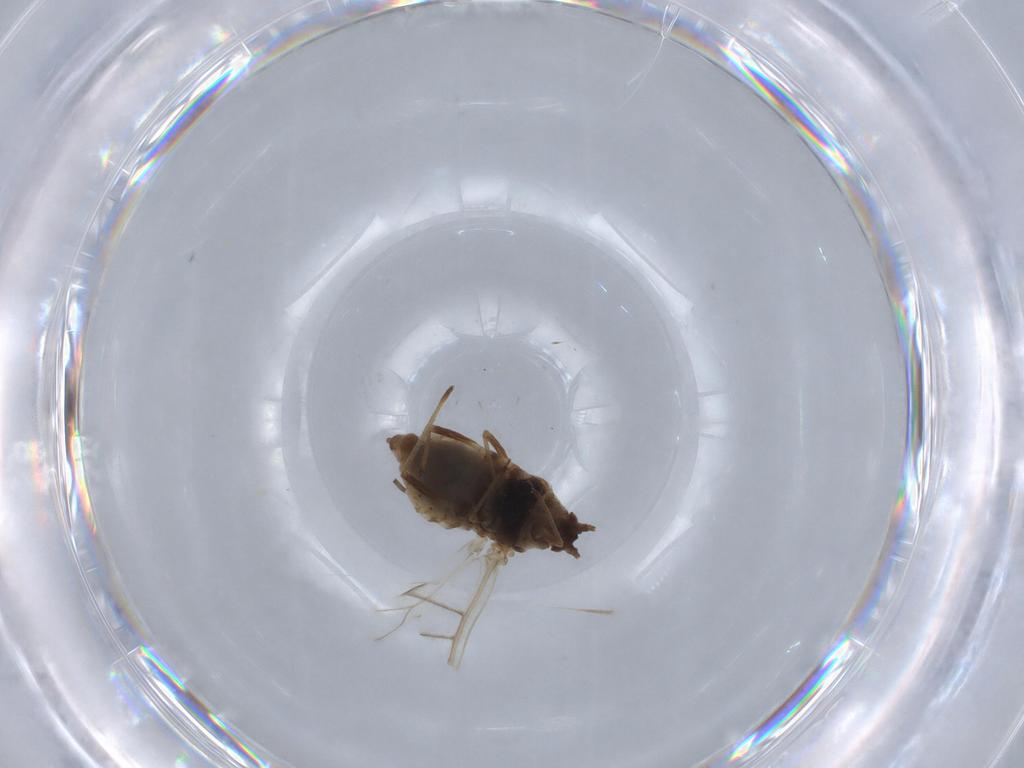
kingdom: Animalia
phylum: Arthropoda
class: Insecta
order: Hemiptera
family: Aphididae
